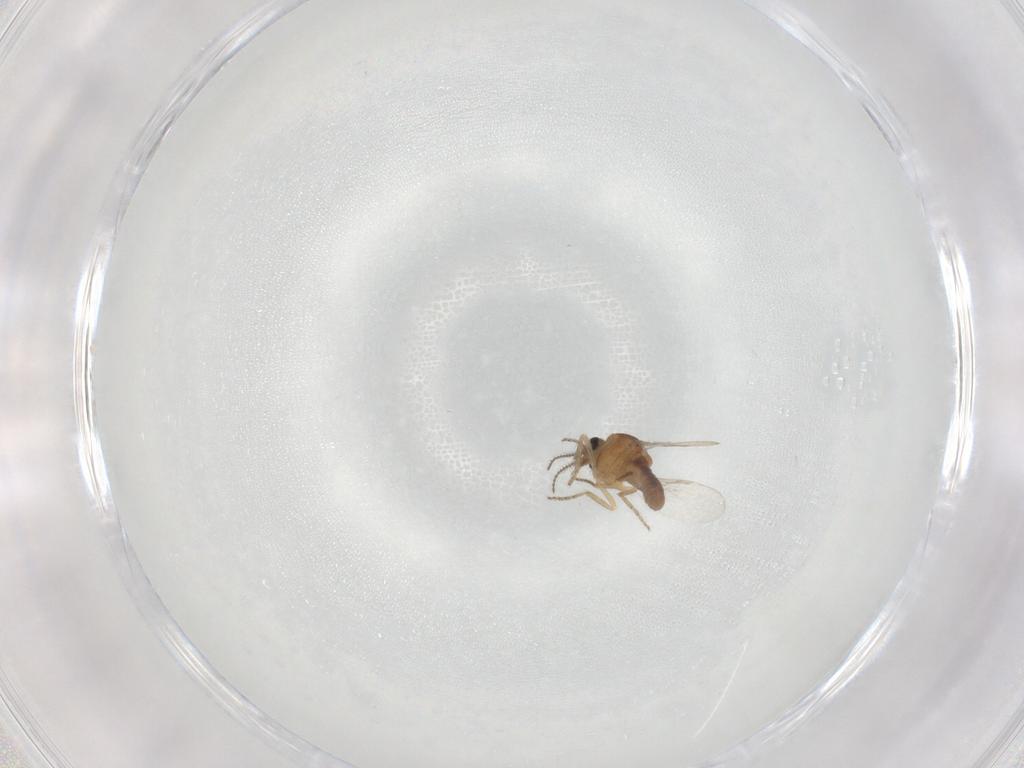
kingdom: Animalia
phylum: Arthropoda
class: Insecta
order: Diptera
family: Ceratopogonidae
